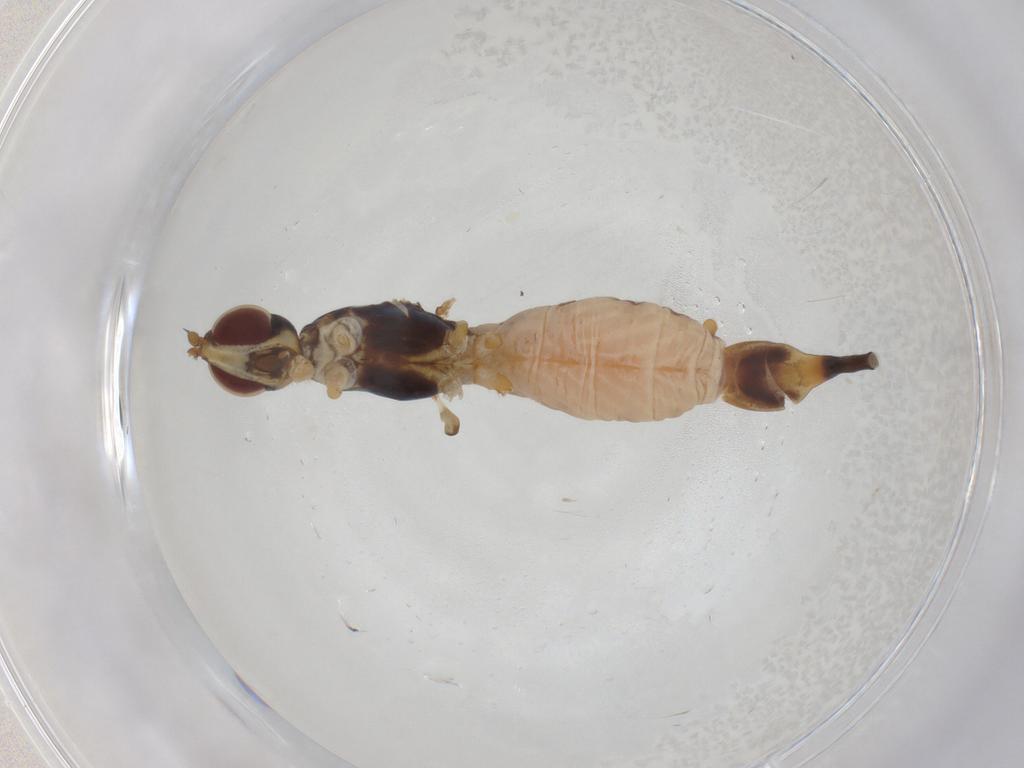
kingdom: Animalia
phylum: Arthropoda
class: Insecta
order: Diptera
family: Micropezidae
